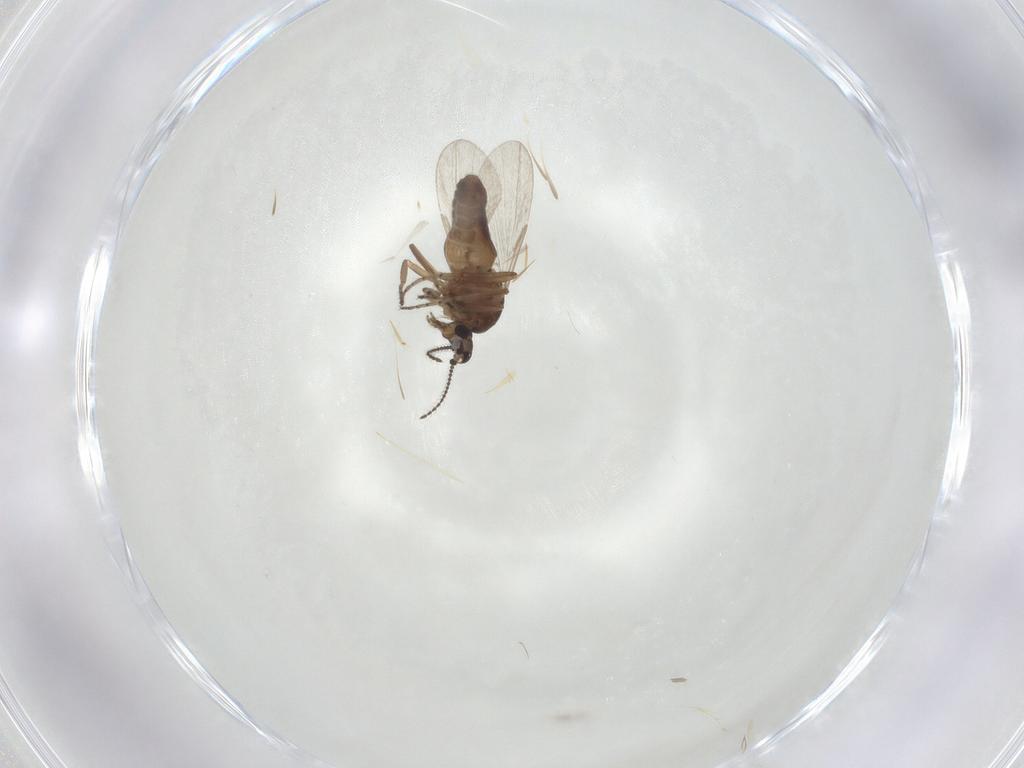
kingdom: Animalia
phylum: Arthropoda
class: Insecta
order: Diptera
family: Ceratopogonidae
